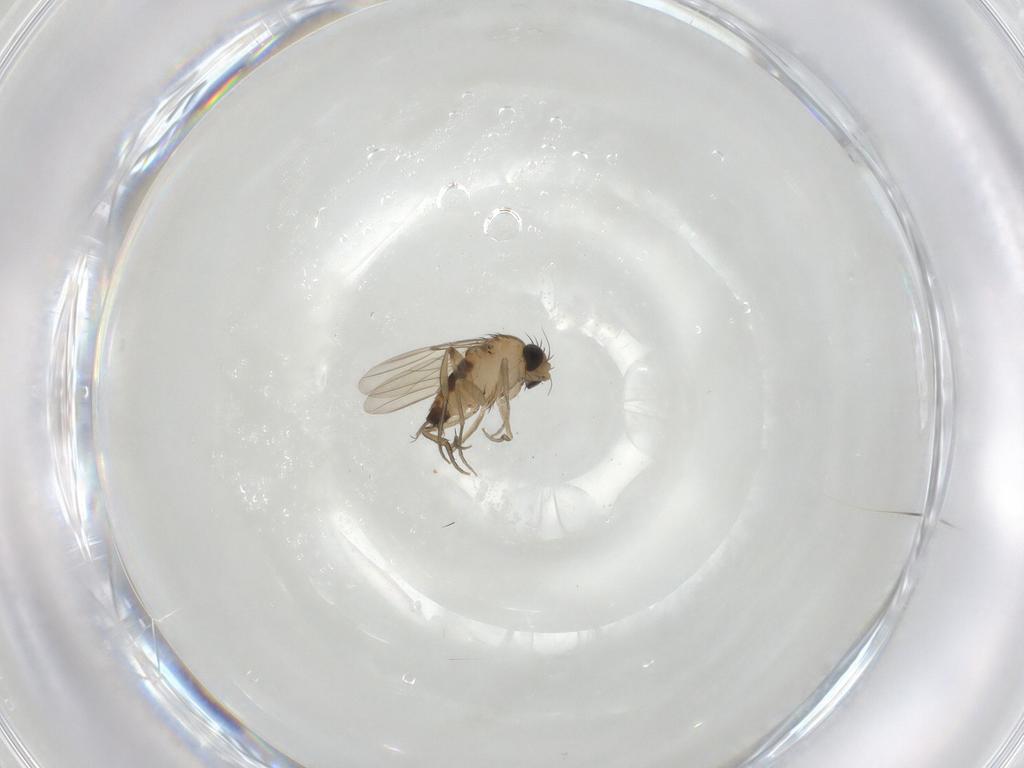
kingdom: Animalia
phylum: Arthropoda
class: Insecta
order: Diptera
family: Phoridae
